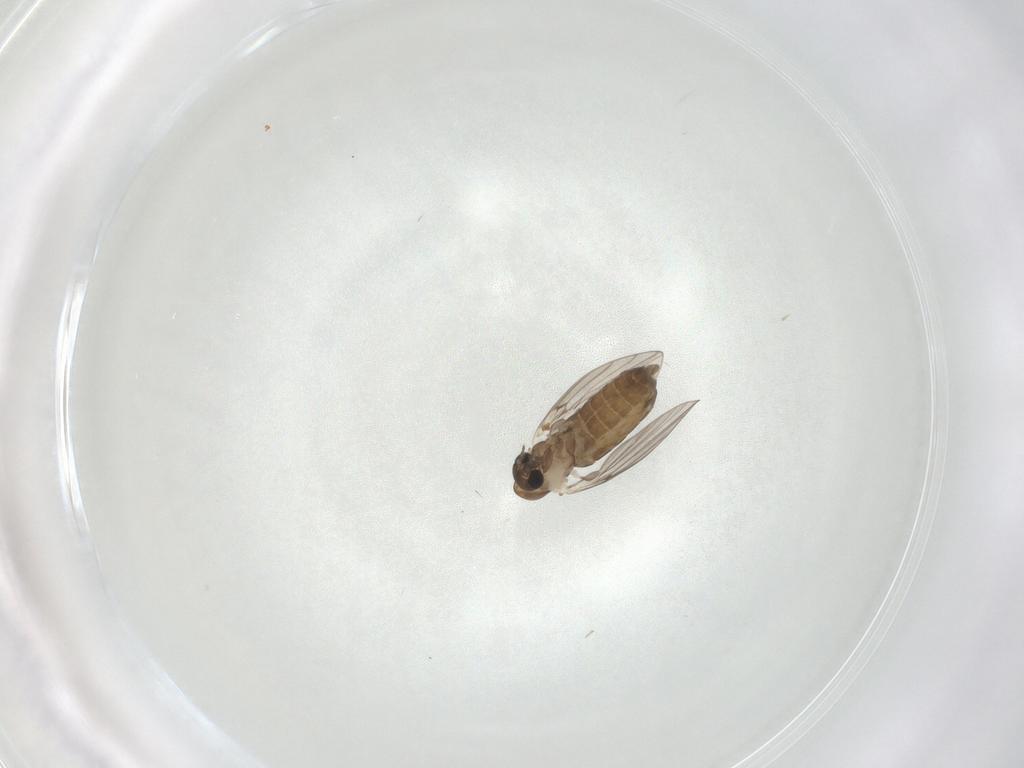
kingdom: Animalia
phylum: Arthropoda
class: Insecta
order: Diptera
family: Psychodidae
